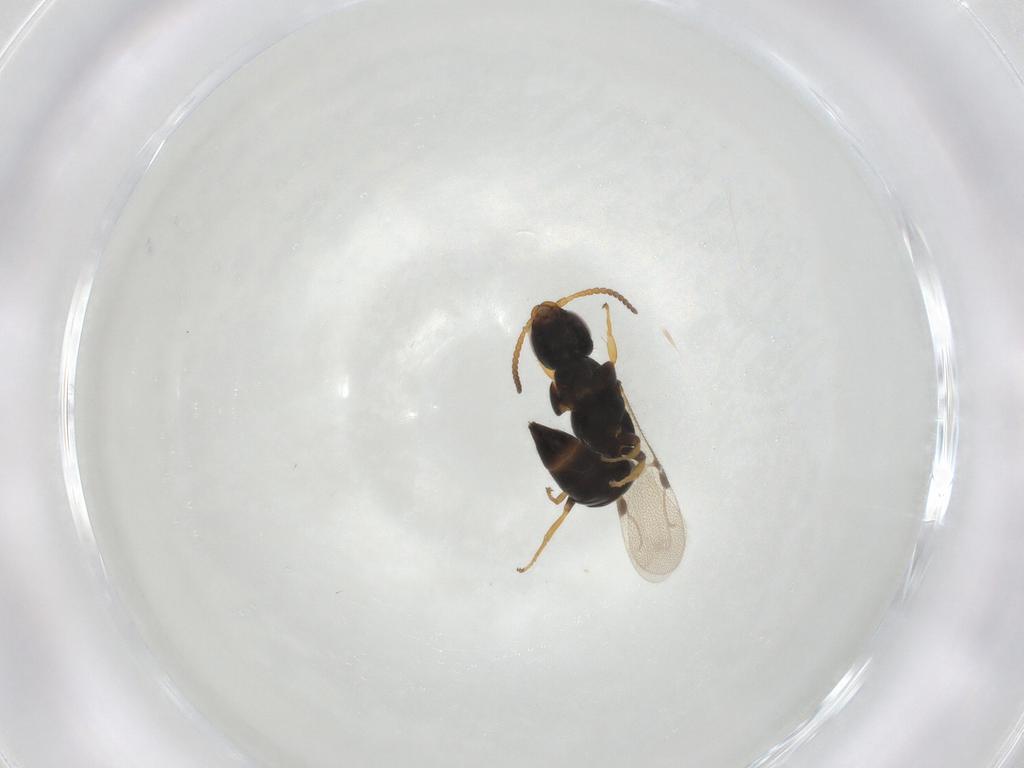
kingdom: Animalia
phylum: Arthropoda
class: Insecta
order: Hymenoptera
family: Bethylidae
